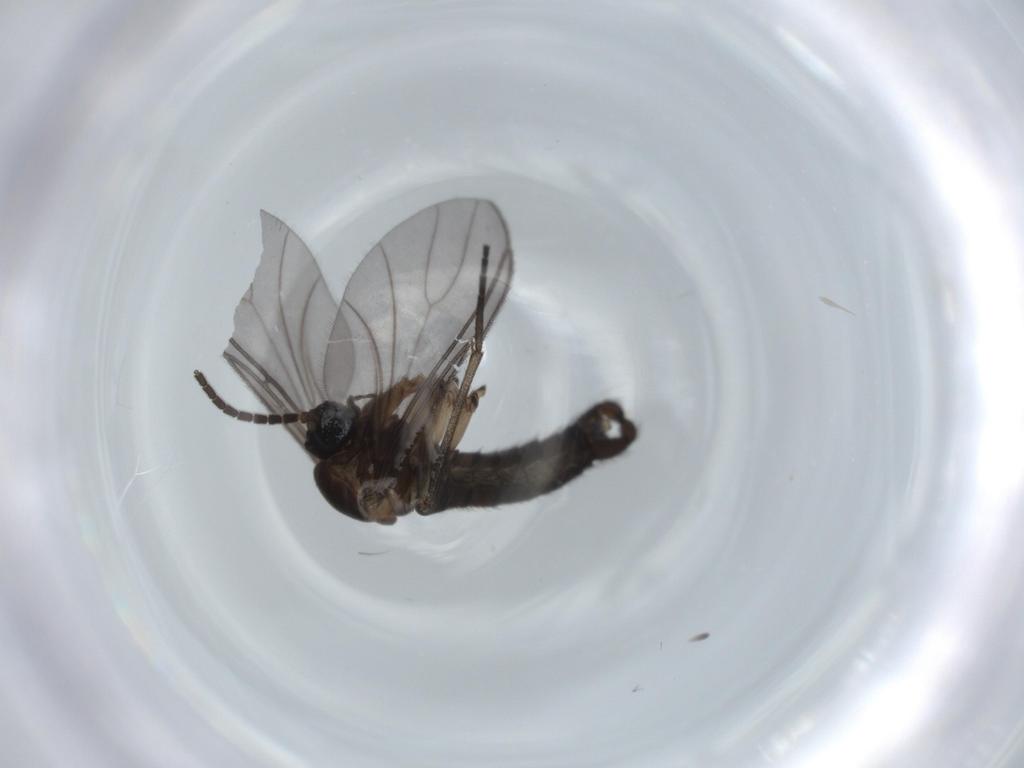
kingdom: Animalia
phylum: Arthropoda
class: Insecta
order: Diptera
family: Sciaridae
